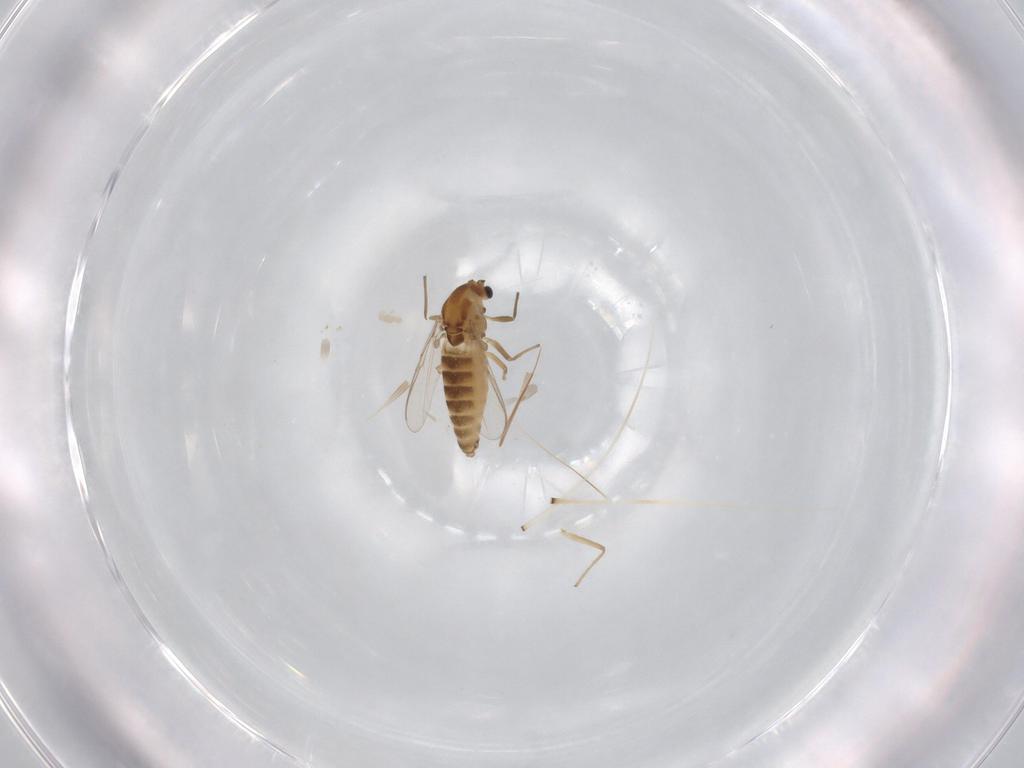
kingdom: Animalia
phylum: Arthropoda
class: Insecta
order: Diptera
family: Chironomidae
